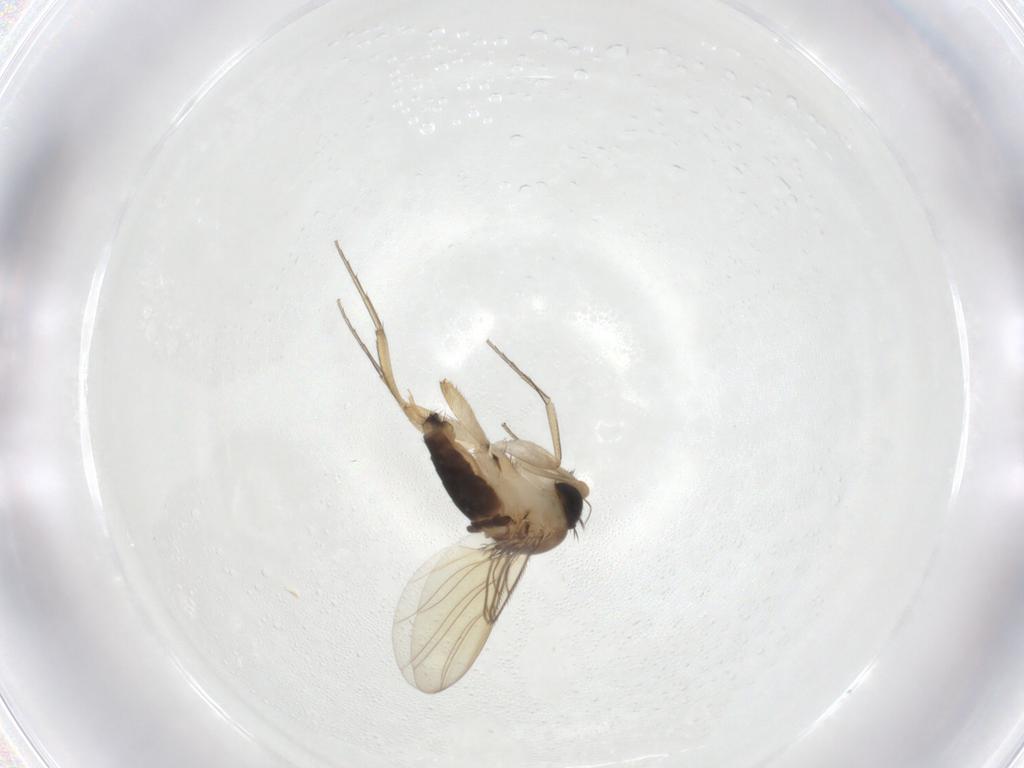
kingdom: Animalia
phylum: Arthropoda
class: Insecta
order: Diptera
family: Phoridae
